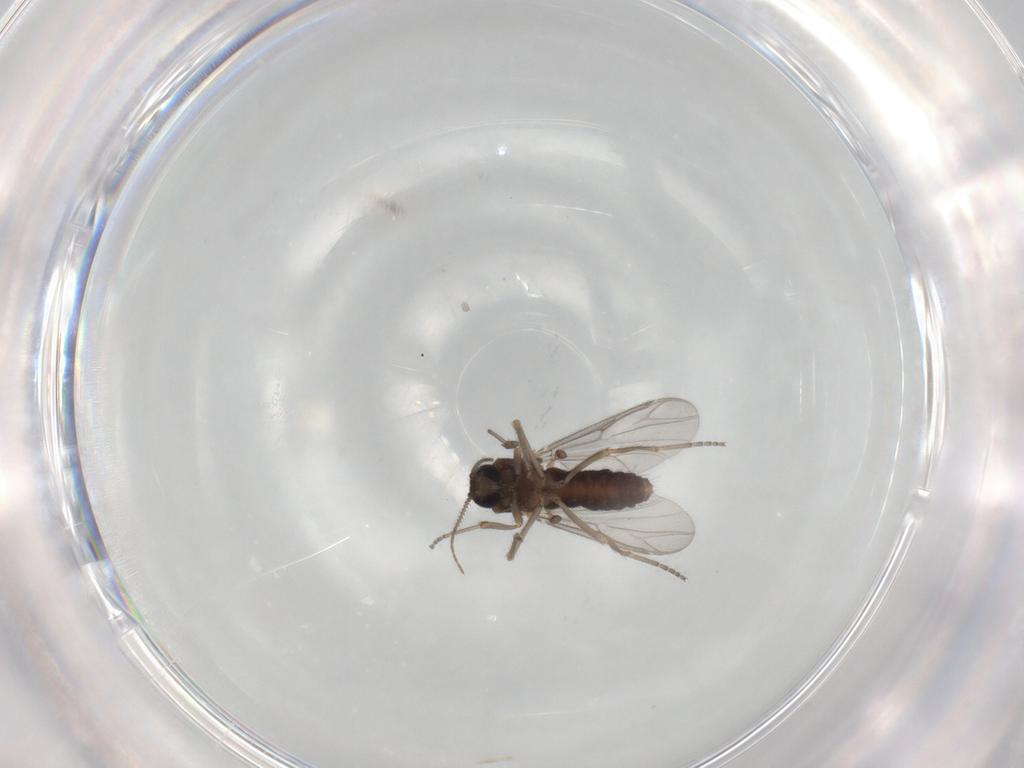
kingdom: Animalia
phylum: Arthropoda
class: Insecta
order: Diptera
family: Ceratopogonidae
